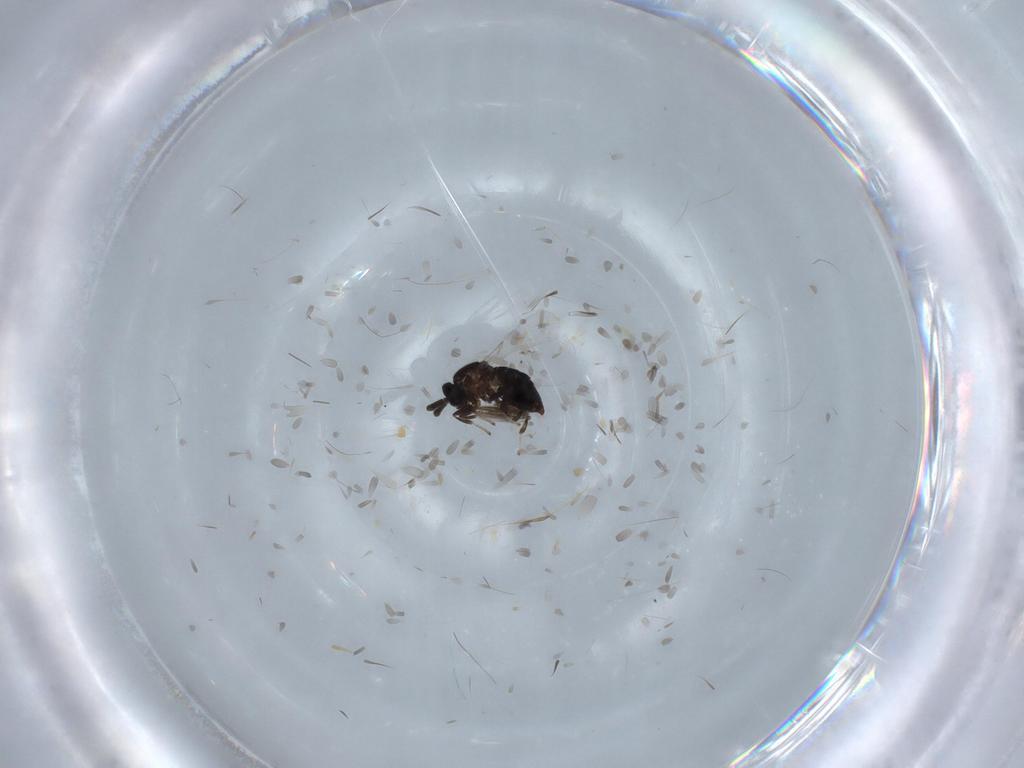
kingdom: Animalia
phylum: Arthropoda
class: Insecta
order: Diptera
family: Scatopsidae
